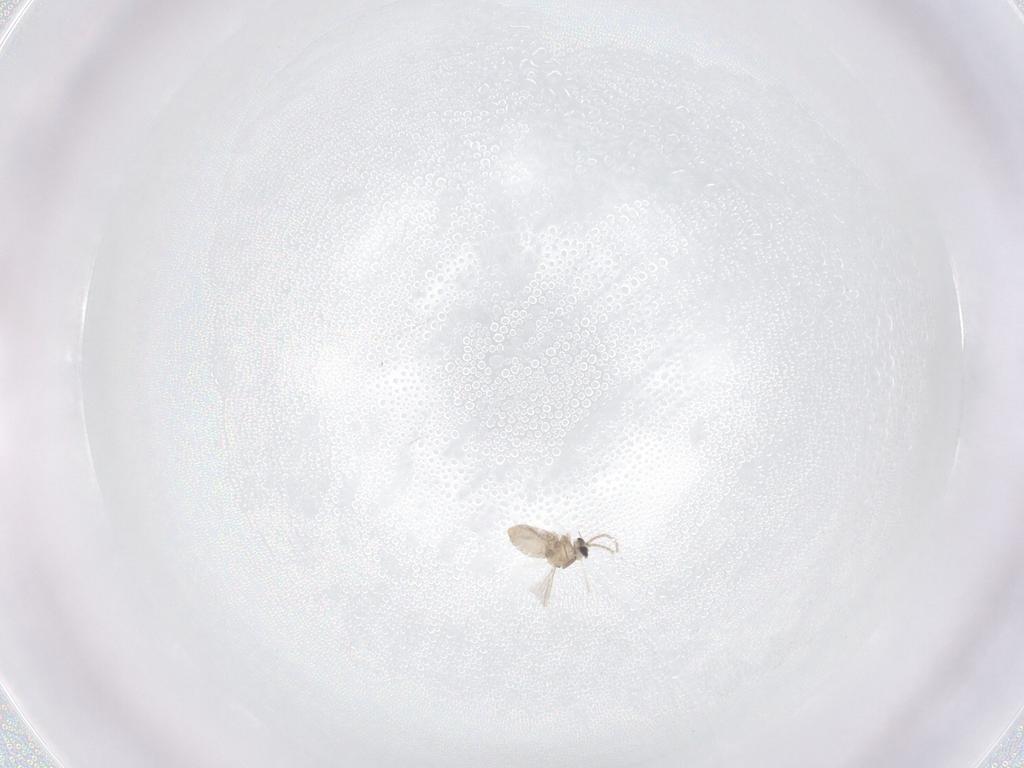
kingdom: Animalia
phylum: Arthropoda
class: Insecta
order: Diptera
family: Cecidomyiidae
